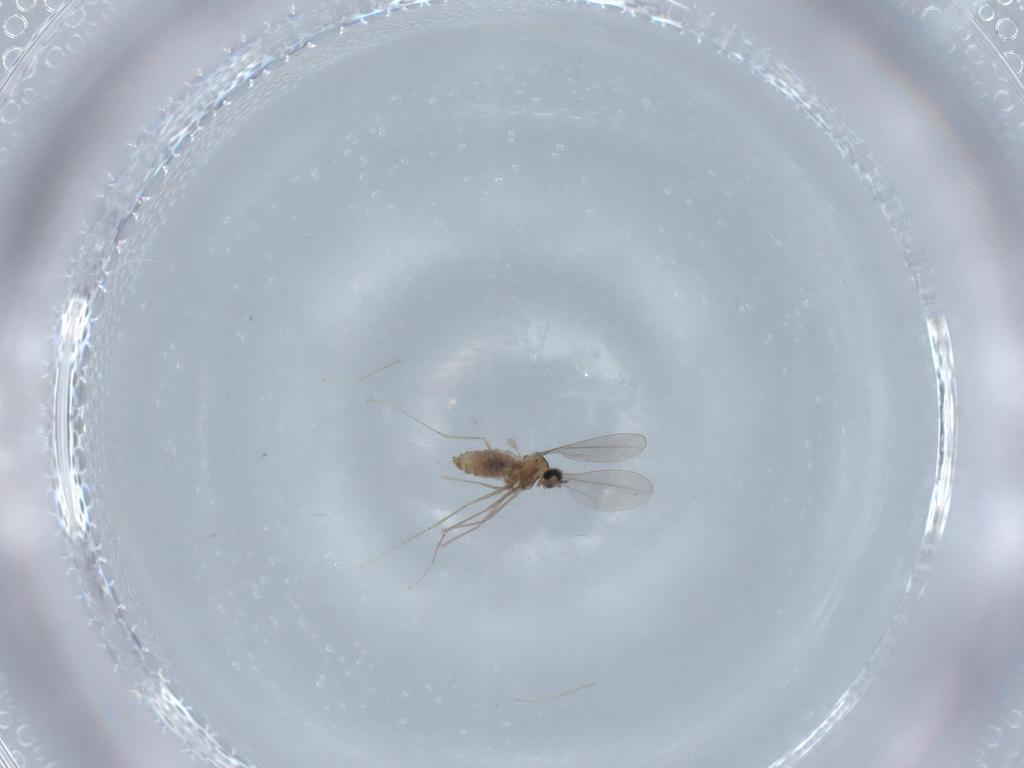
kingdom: Animalia
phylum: Arthropoda
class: Insecta
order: Diptera
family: Cecidomyiidae
